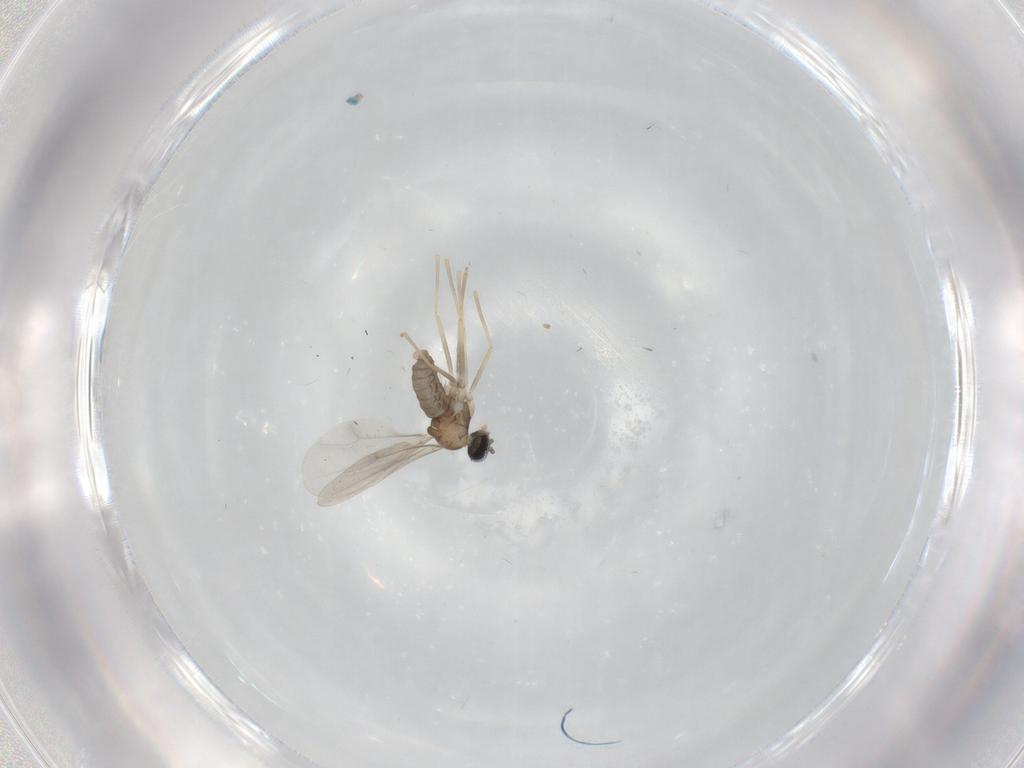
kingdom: Animalia
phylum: Arthropoda
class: Insecta
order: Diptera
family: Cecidomyiidae
